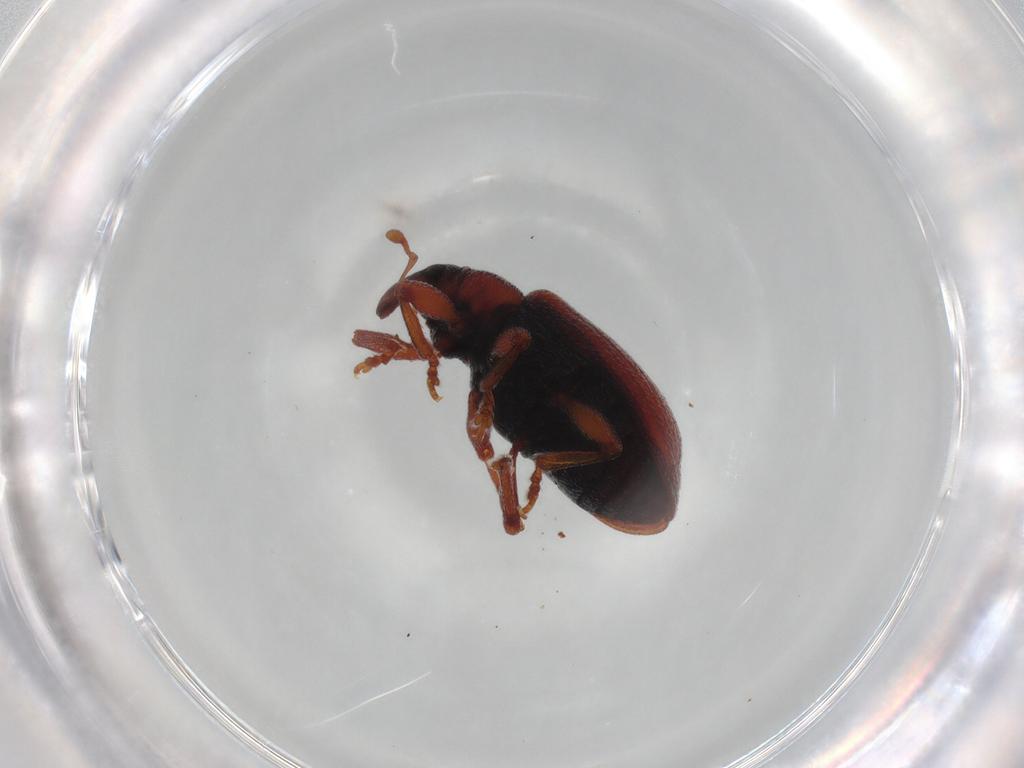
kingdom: Animalia
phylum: Arthropoda
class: Insecta
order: Coleoptera
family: Curculionidae
